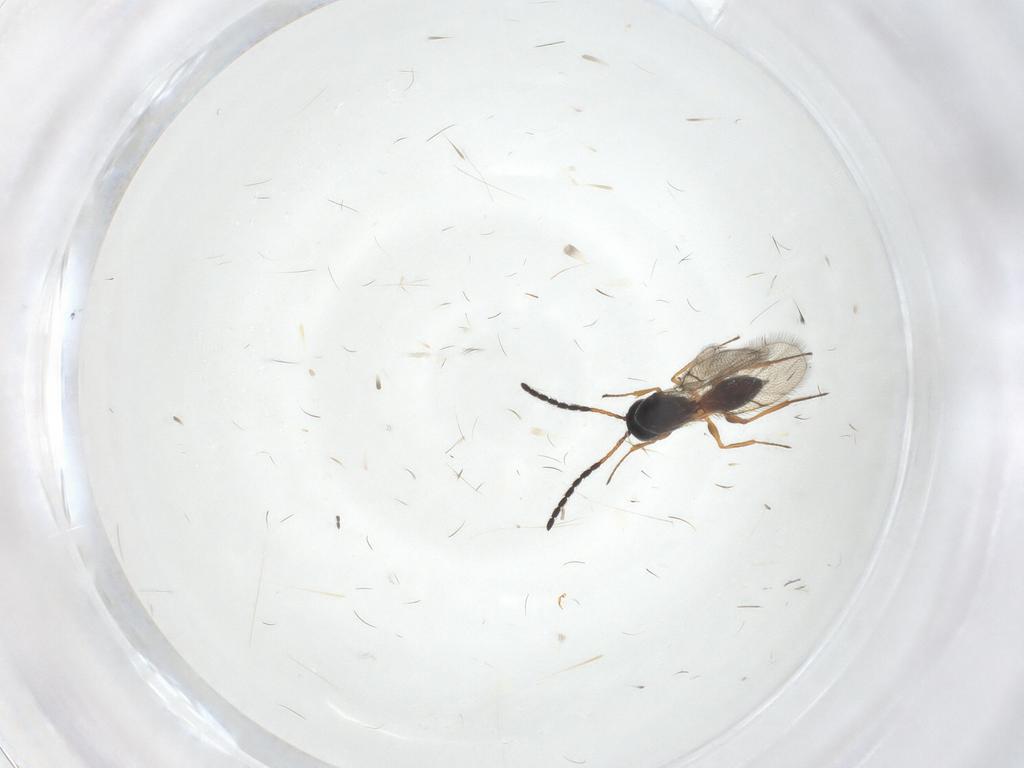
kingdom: Animalia
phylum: Arthropoda
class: Insecta
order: Hymenoptera
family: Figitidae
